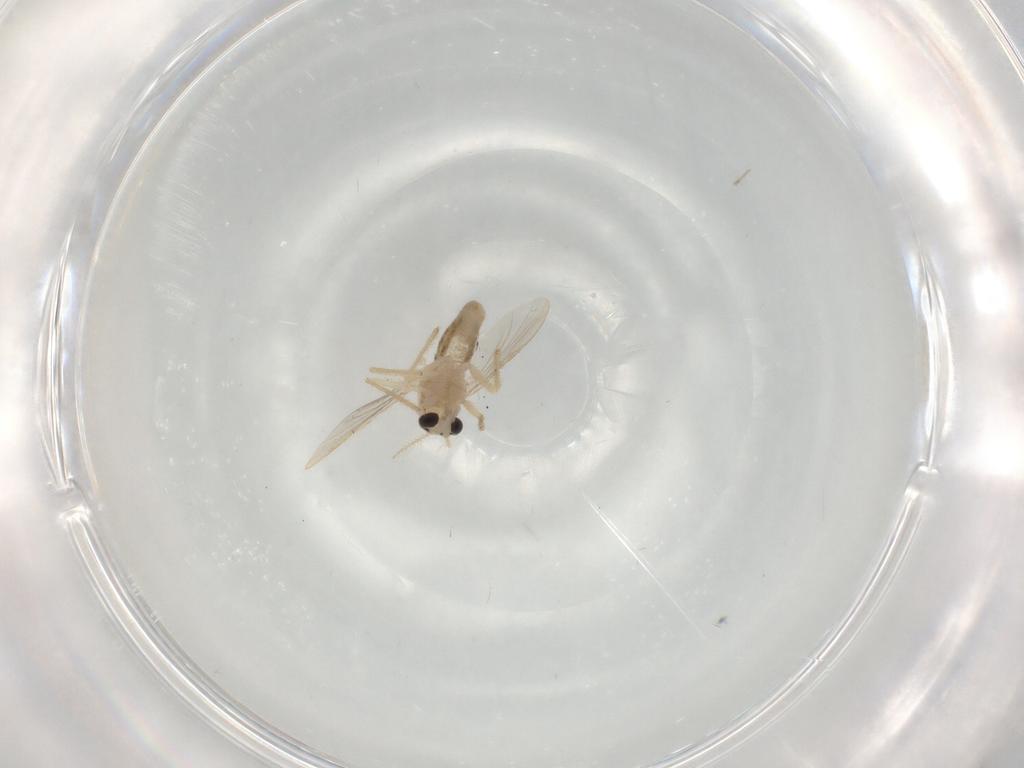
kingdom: Animalia
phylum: Arthropoda
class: Insecta
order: Diptera
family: Chironomidae
